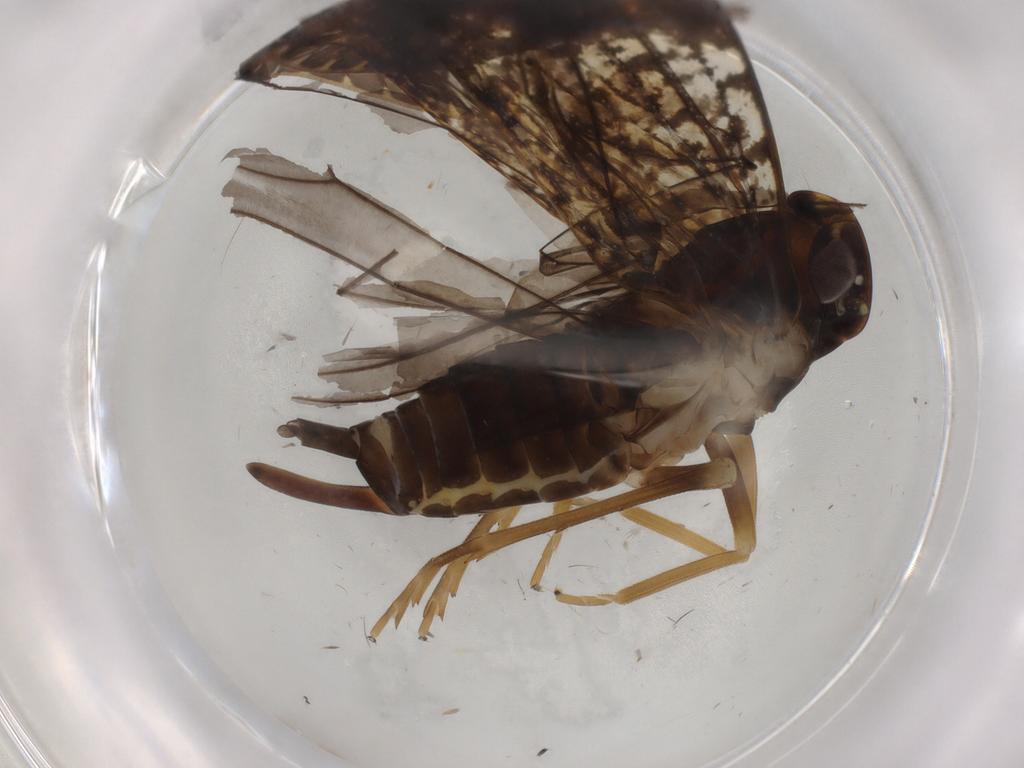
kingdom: Animalia
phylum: Arthropoda
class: Insecta
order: Hemiptera
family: Cixiidae
